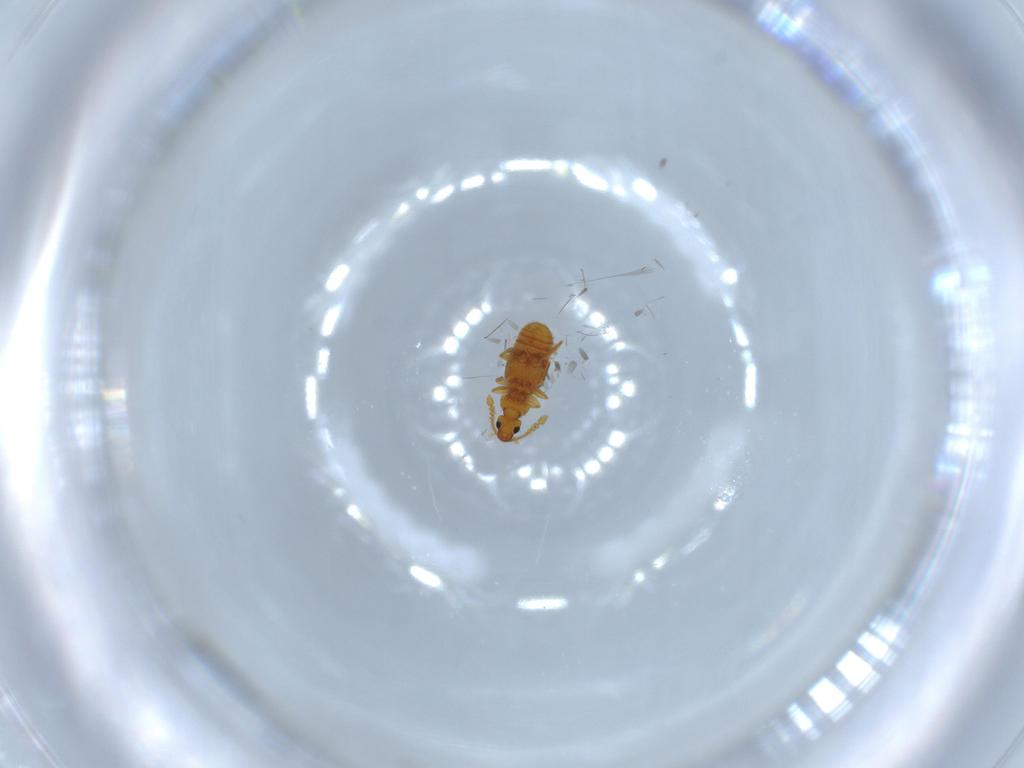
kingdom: Animalia
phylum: Arthropoda
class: Insecta
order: Coleoptera
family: Staphylinidae
